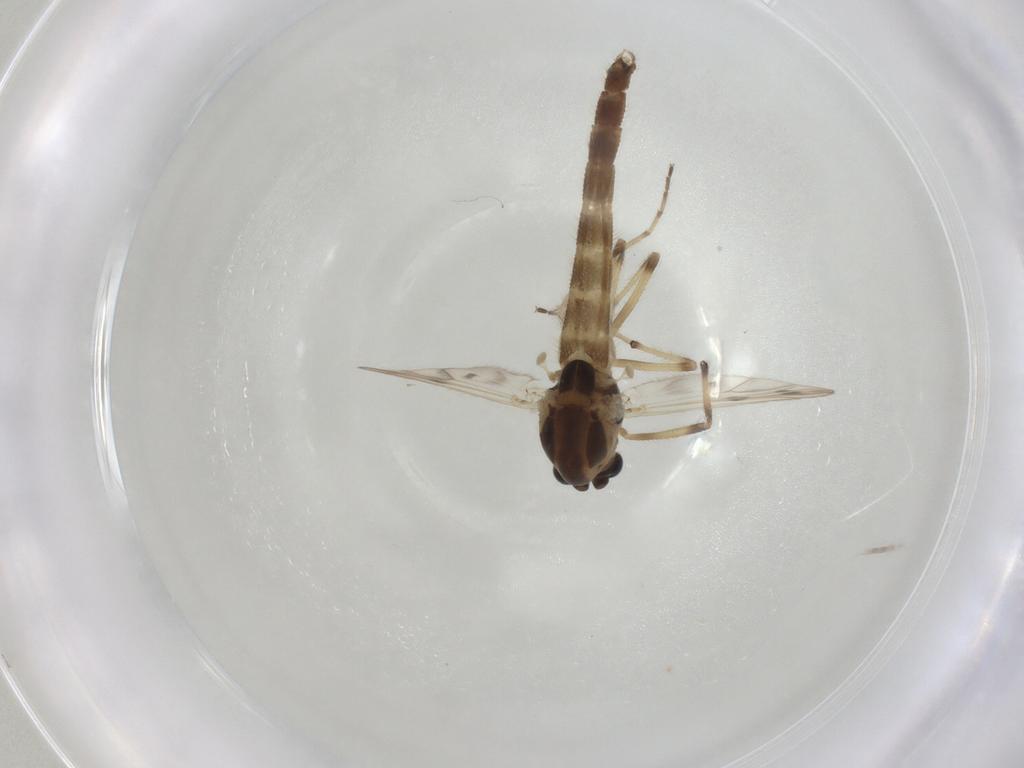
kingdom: Animalia
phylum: Arthropoda
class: Insecta
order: Diptera
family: Chironomidae
